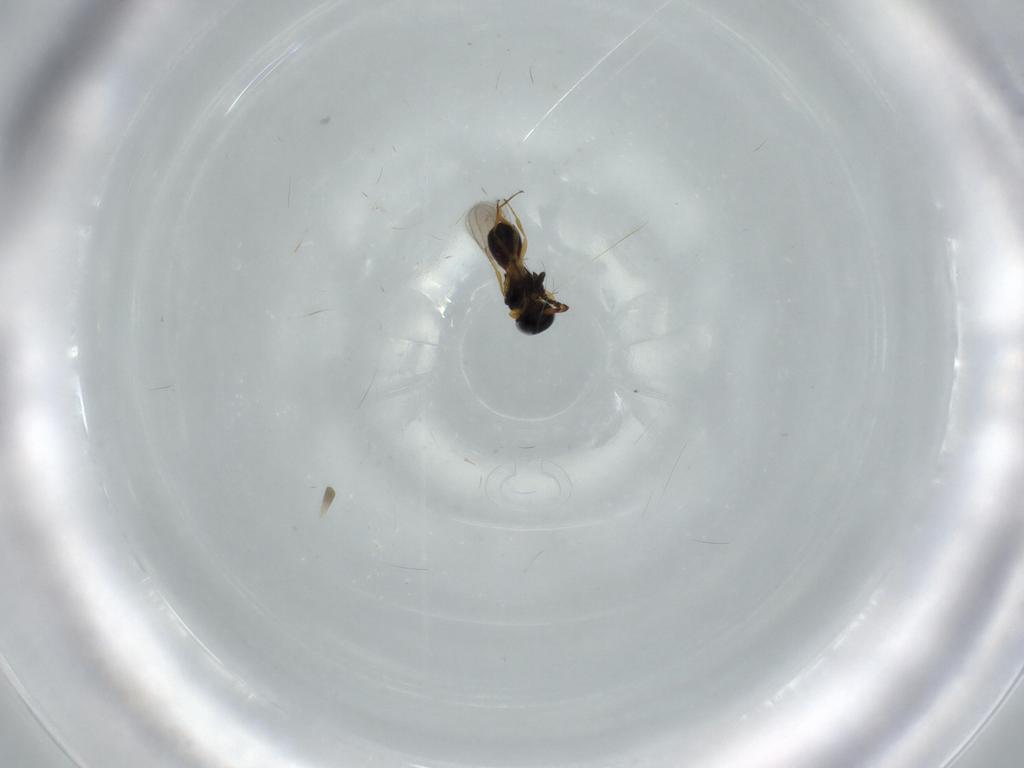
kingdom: Animalia
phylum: Arthropoda
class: Insecta
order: Hymenoptera
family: Scelionidae
